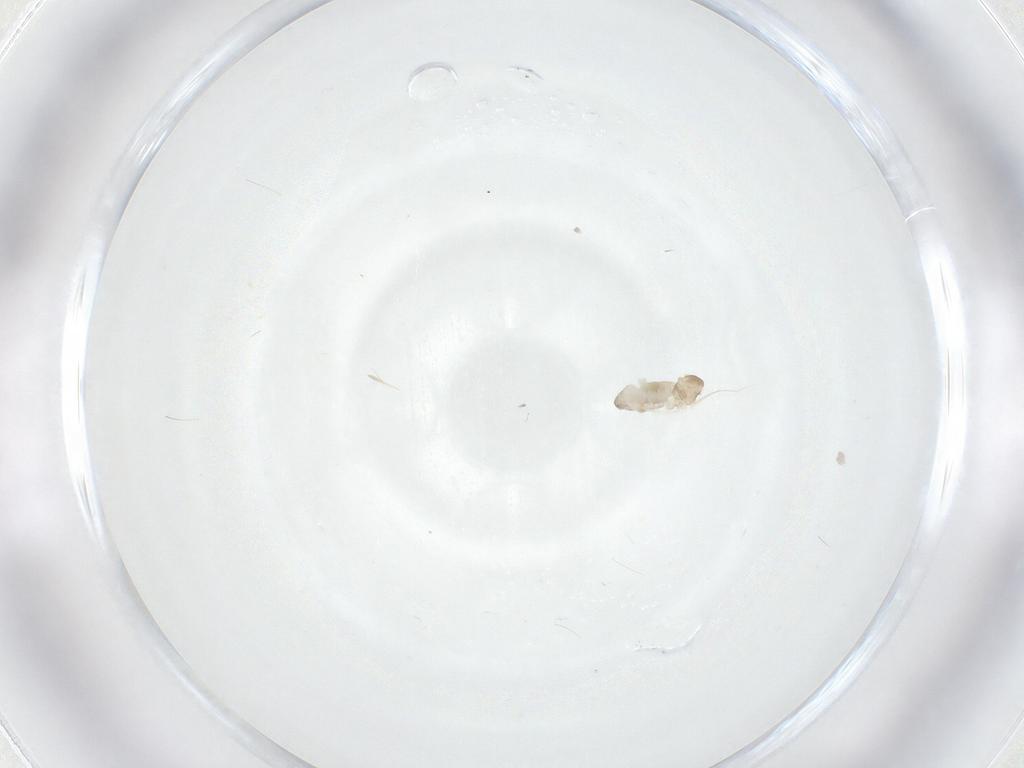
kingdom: Animalia
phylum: Arthropoda
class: Insecta
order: Diptera
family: Cecidomyiidae
